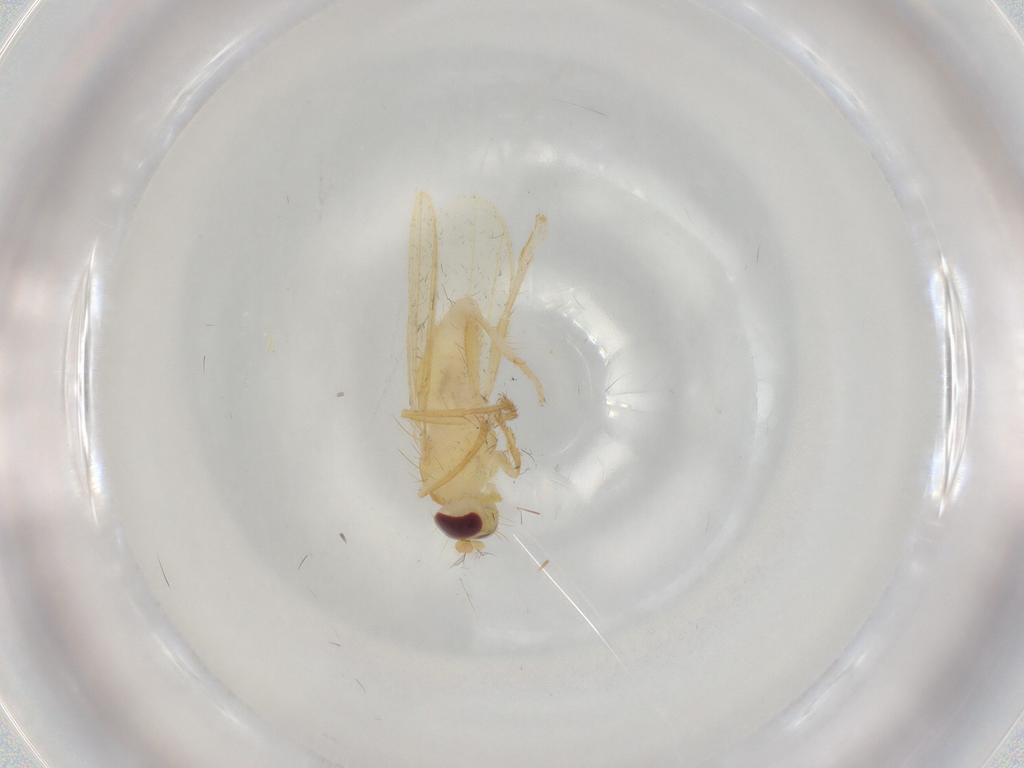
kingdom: Animalia
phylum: Arthropoda
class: Insecta
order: Diptera
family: Periscelididae
